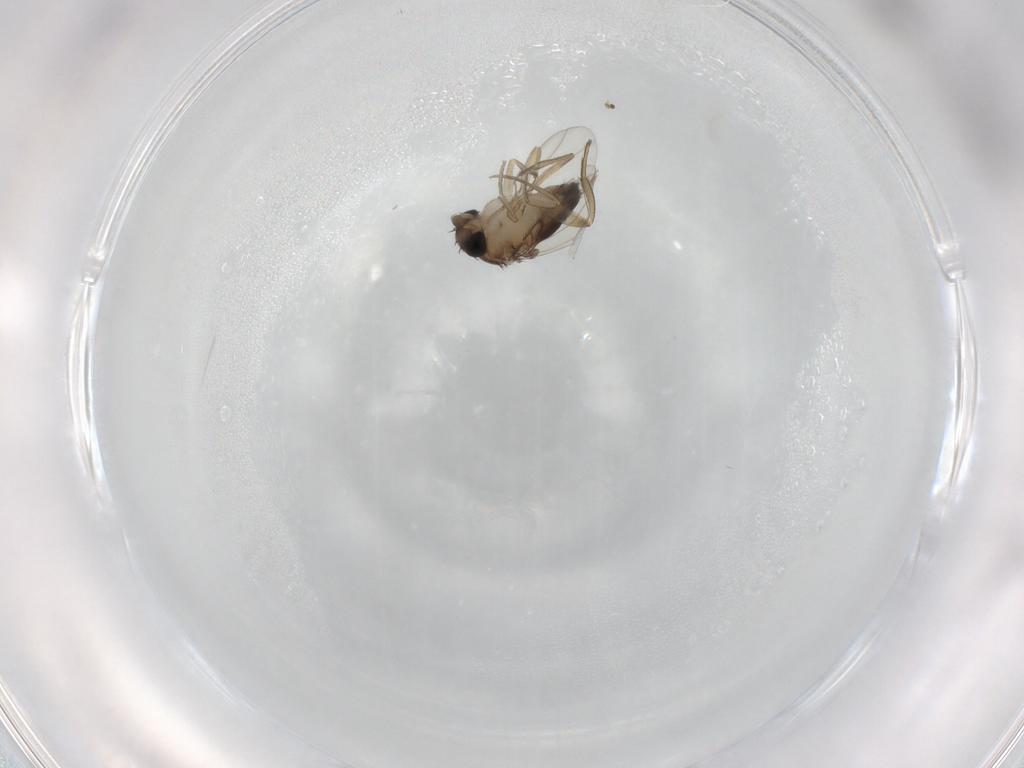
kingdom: Animalia
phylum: Arthropoda
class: Insecta
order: Diptera
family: Phoridae
